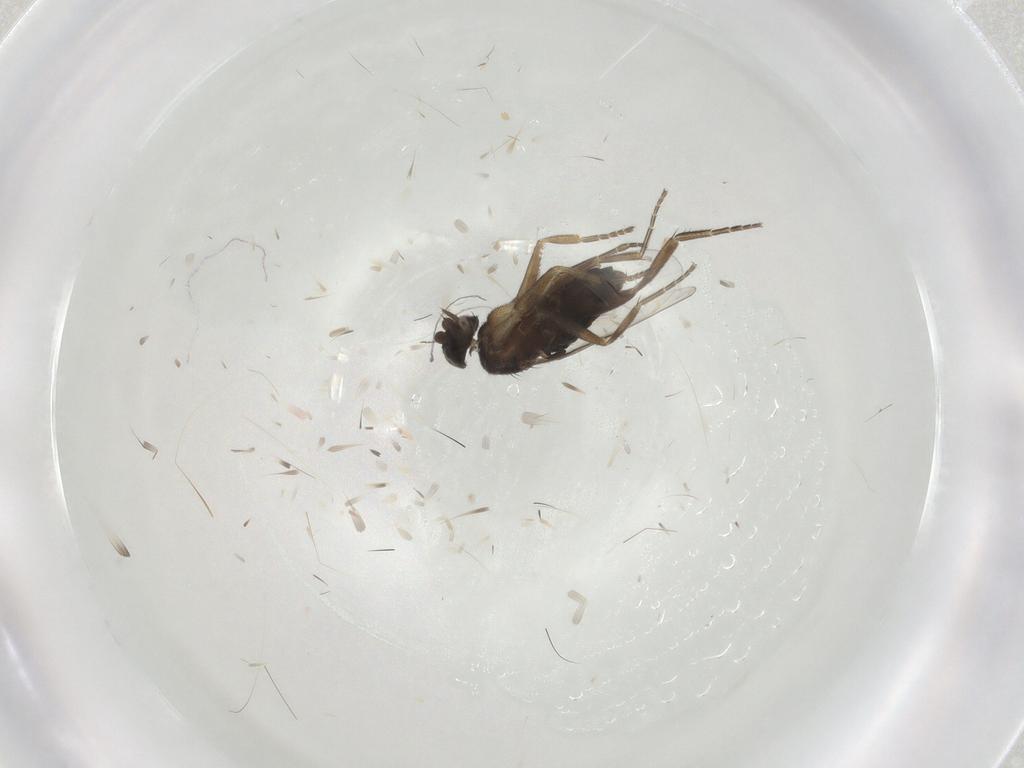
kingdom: Animalia
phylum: Arthropoda
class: Insecta
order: Diptera
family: Phoridae
